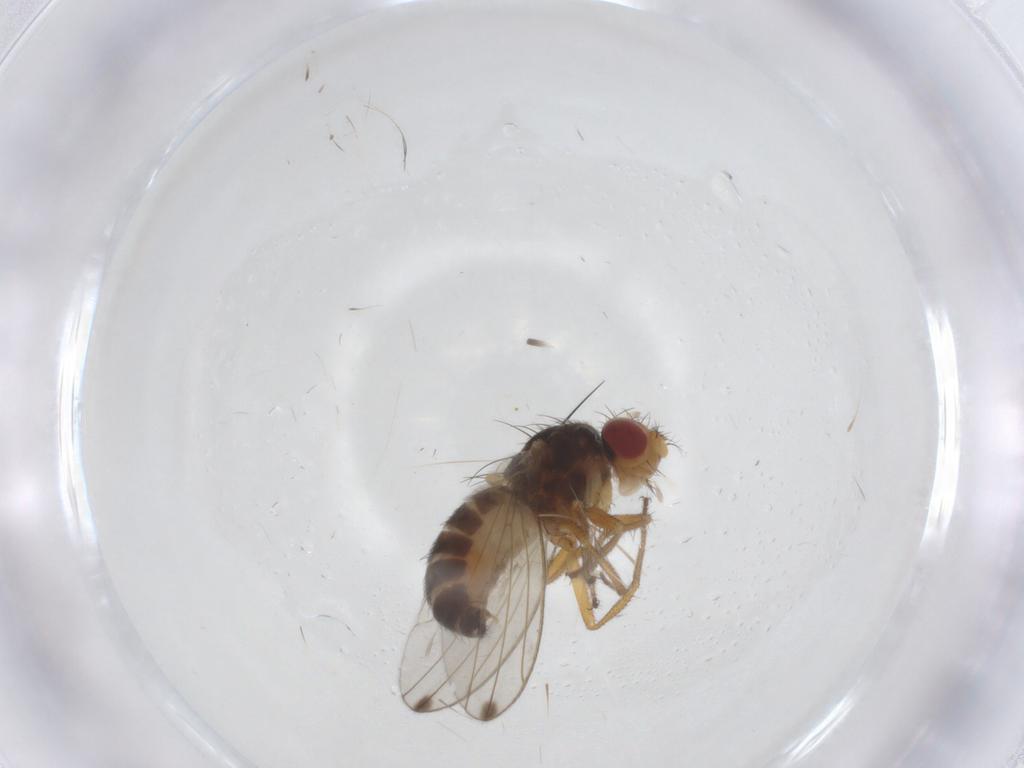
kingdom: Animalia
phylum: Arthropoda
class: Insecta
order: Diptera
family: Drosophilidae
